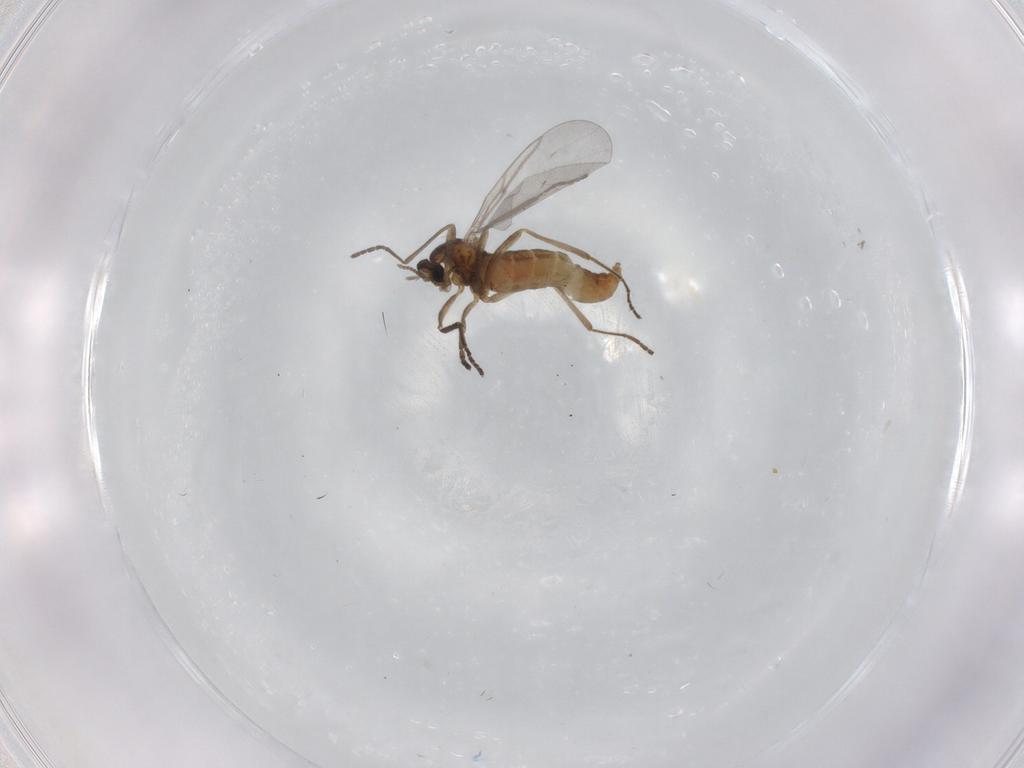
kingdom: Animalia
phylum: Arthropoda
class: Insecta
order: Diptera
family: Cecidomyiidae
